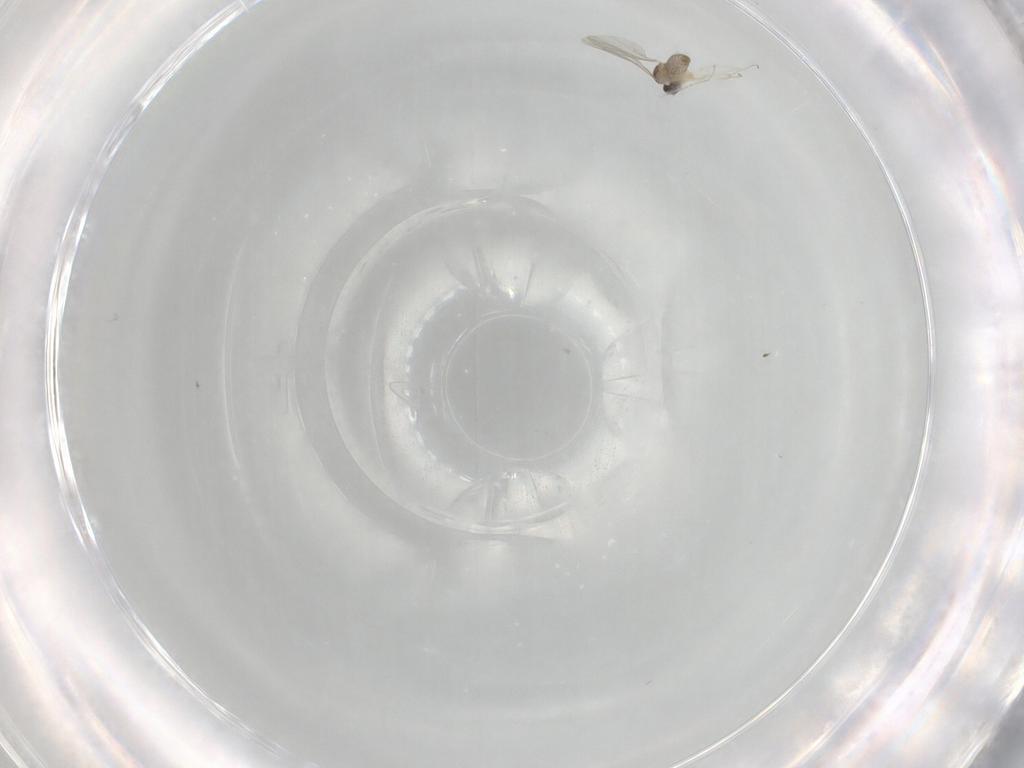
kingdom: Animalia
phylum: Arthropoda
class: Insecta
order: Diptera
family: Cecidomyiidae
